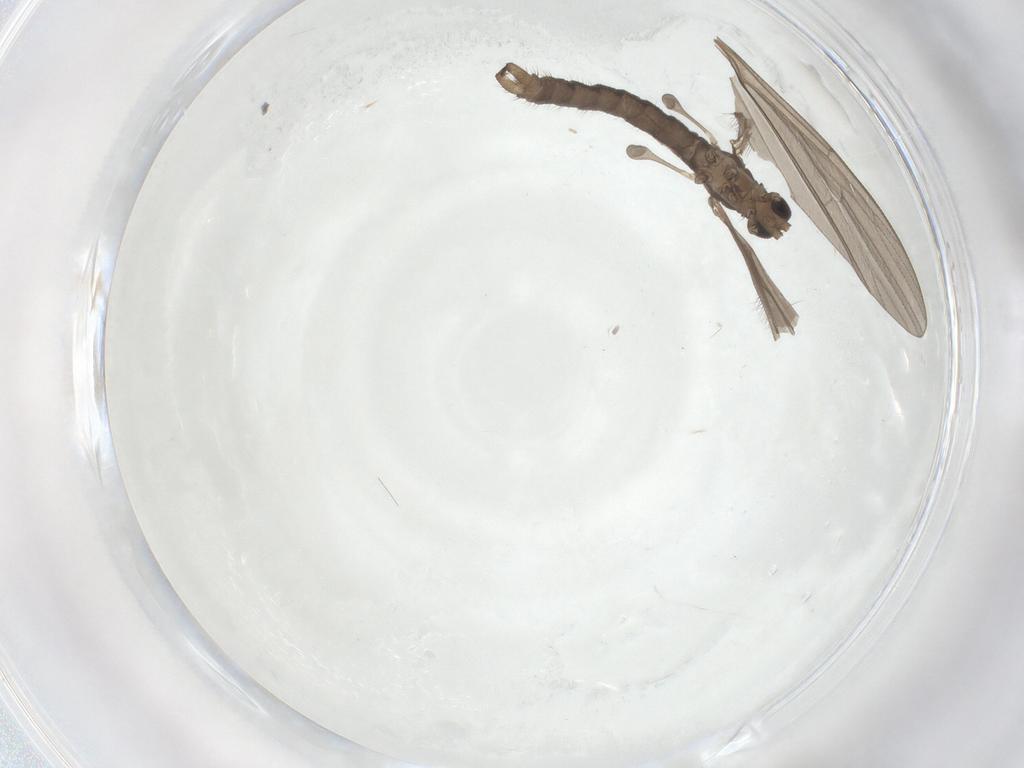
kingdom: Animalia
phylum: Arthropoda
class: Insecta
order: Diptera
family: Limoniidae
